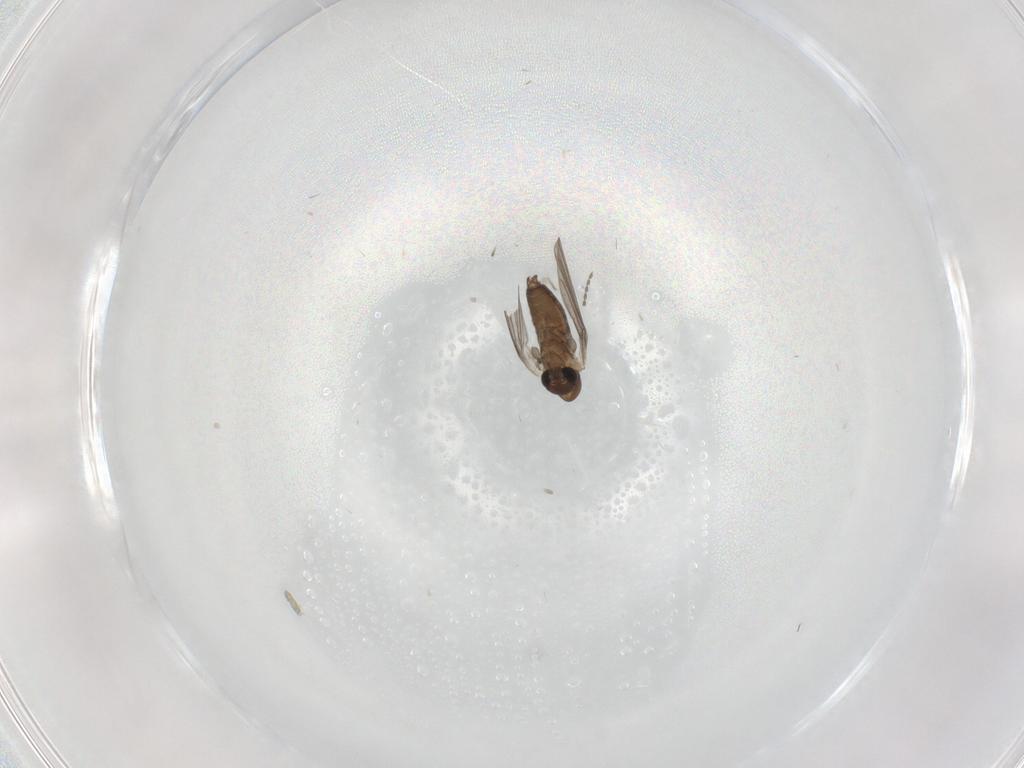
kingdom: Animalia
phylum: Arthropoda
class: Insecta
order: Diptera
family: Milichiidae
